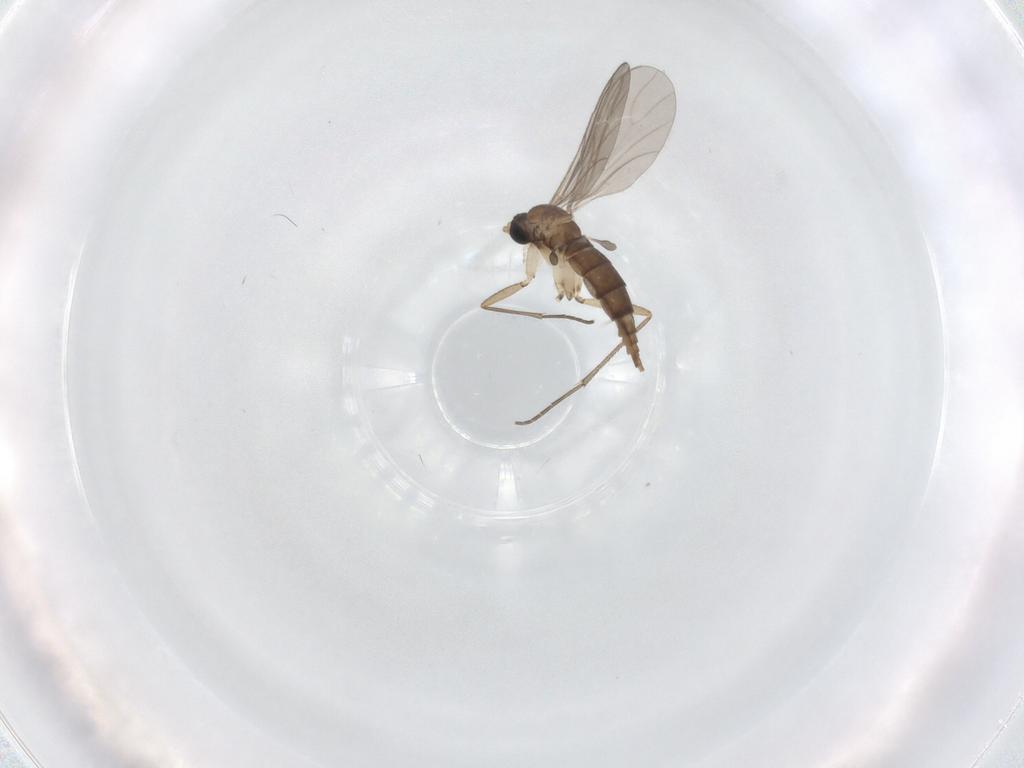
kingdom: Animalia
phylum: Arthropoda
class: Insecta
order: Diptera
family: Sciaridae
